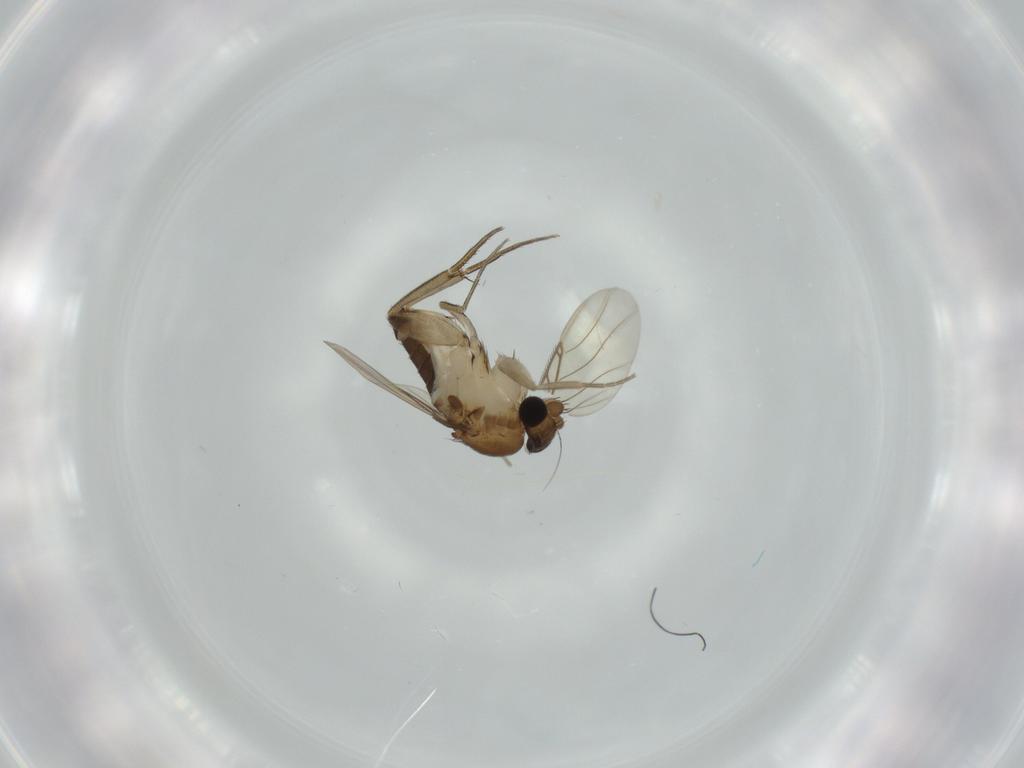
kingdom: Animalia
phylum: Arthropoda
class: Insecta
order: Diptera
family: Phoridae
